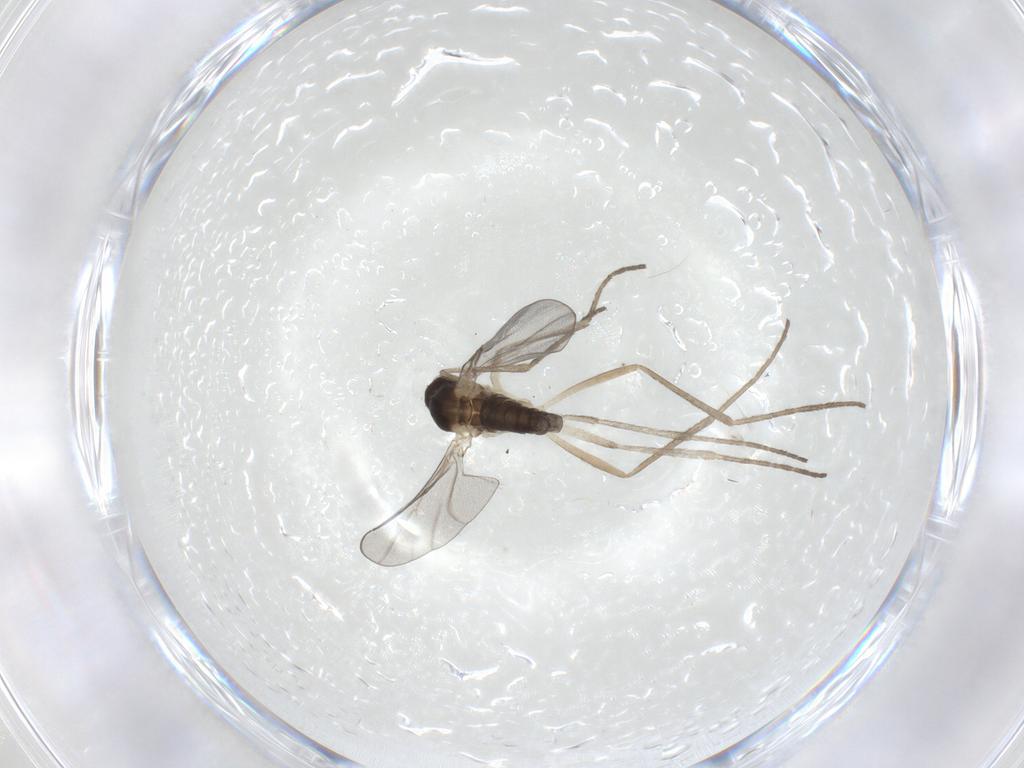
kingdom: Animalia
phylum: Arthropoda
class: Insecta
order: Diptera
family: Cecidomyiidae
